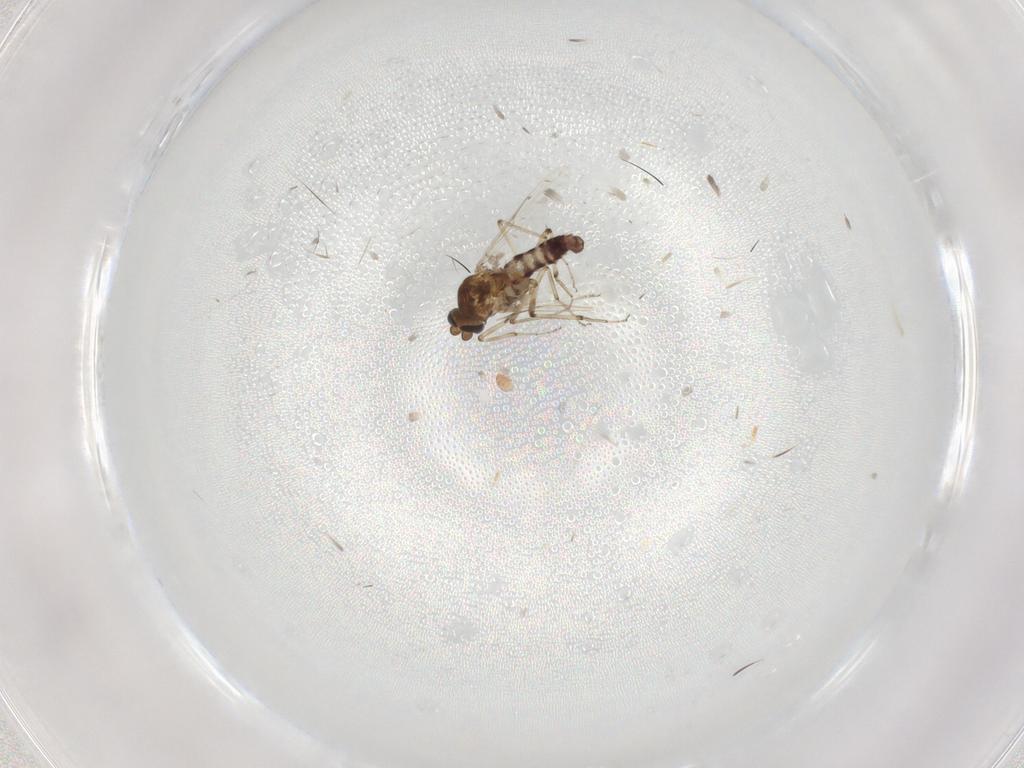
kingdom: Animalia
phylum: Arthropoda
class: Insecta
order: Diptera
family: Ceratopogonidae
